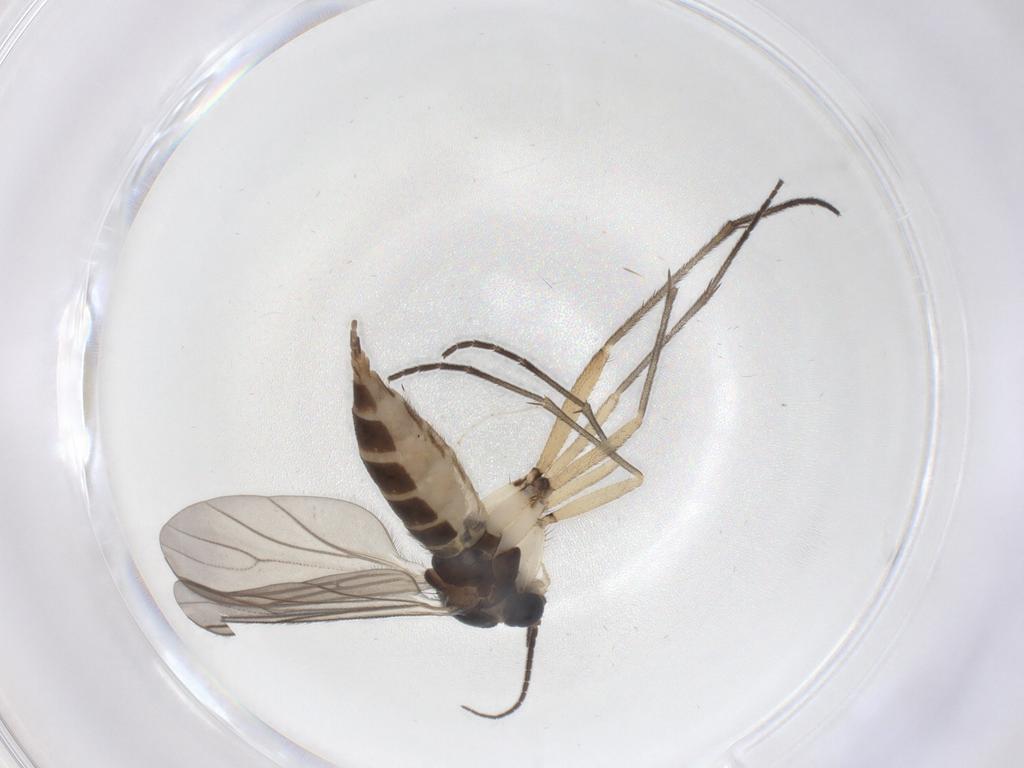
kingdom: Animalia
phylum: Arthropoda
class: Insecta
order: Diptera
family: Sciaridae
